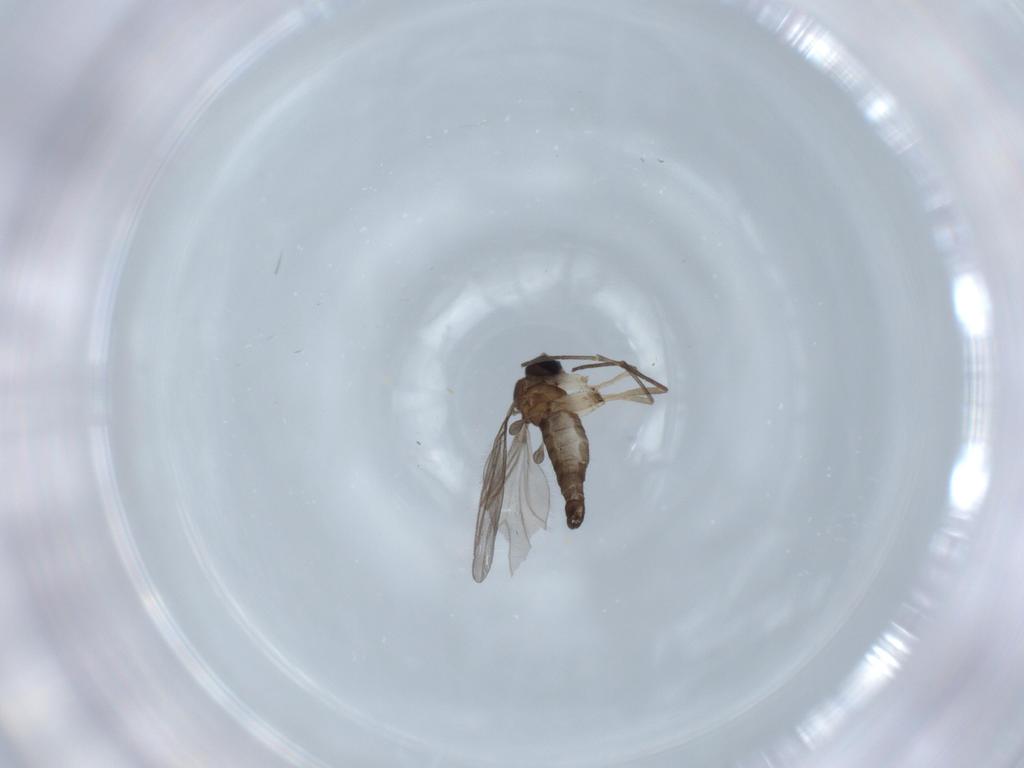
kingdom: Animalia
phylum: Arthropoda
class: Insecta
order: Diptera
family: Sciaridae
